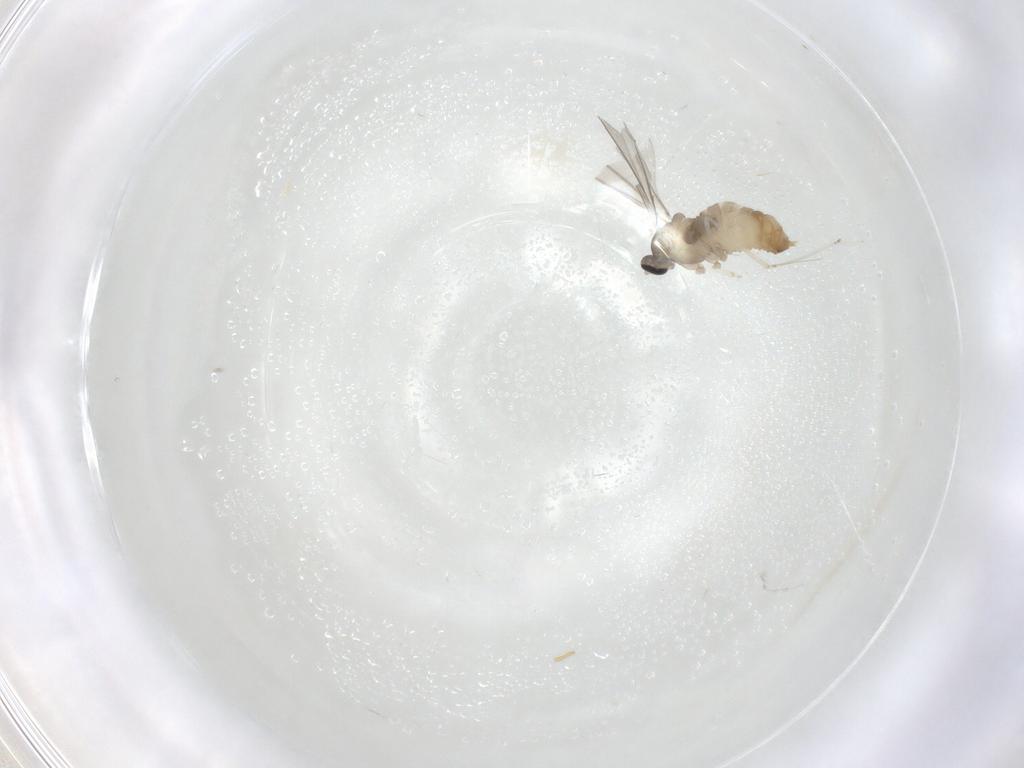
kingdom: Animalia
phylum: Arthropoda
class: Insecta
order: Diptera
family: Cecidomyiidae
